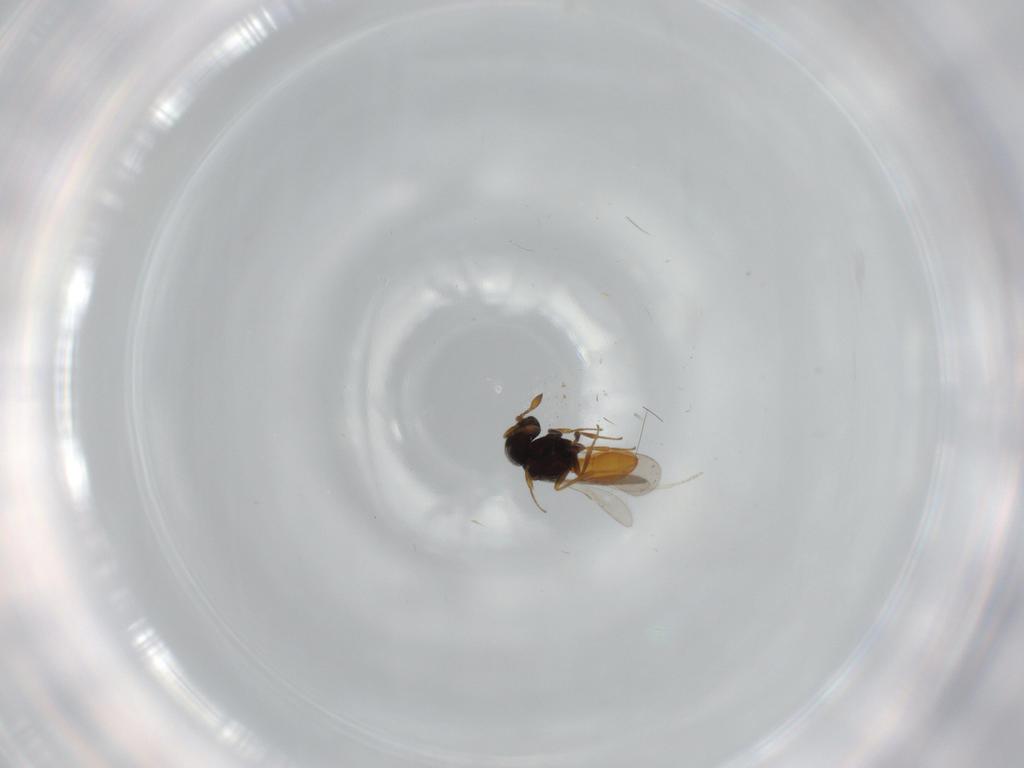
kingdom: Animalia
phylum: Arthropoda
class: Insecta
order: Hymenoptera
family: Scelionidae
